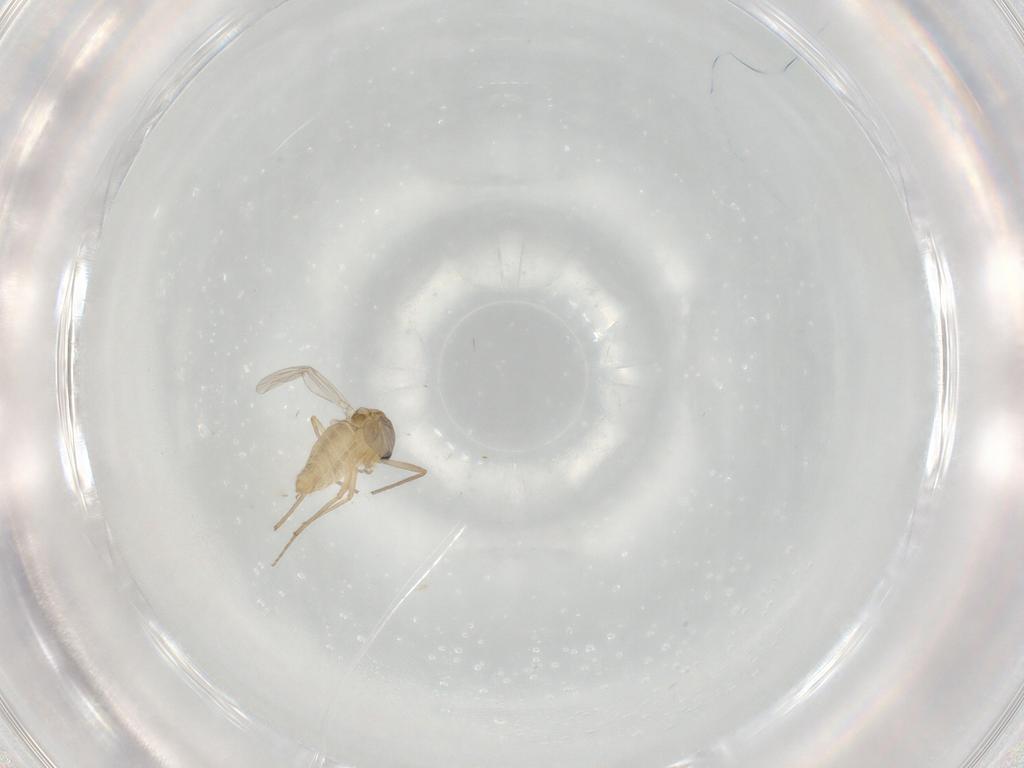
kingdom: Animalia
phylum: Arthropoda
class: Insecta
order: Diptera
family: Chironomidae
